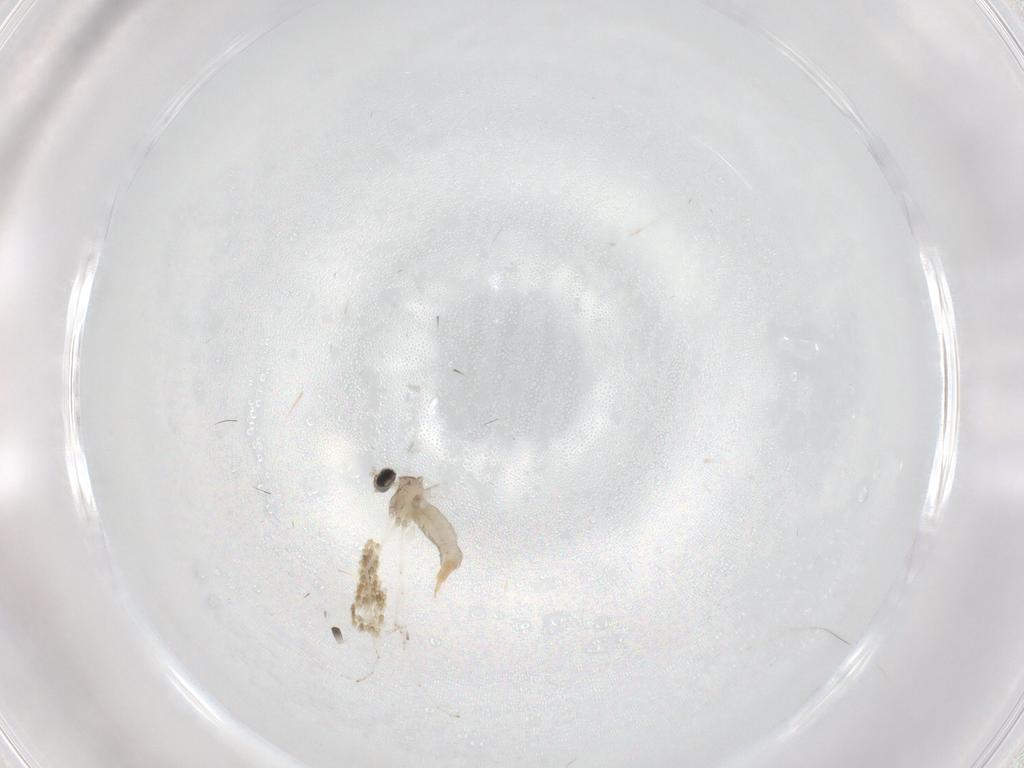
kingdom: Animalia
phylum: Arthropoda
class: Insecta
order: Diptera
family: Cecidomyiidae
